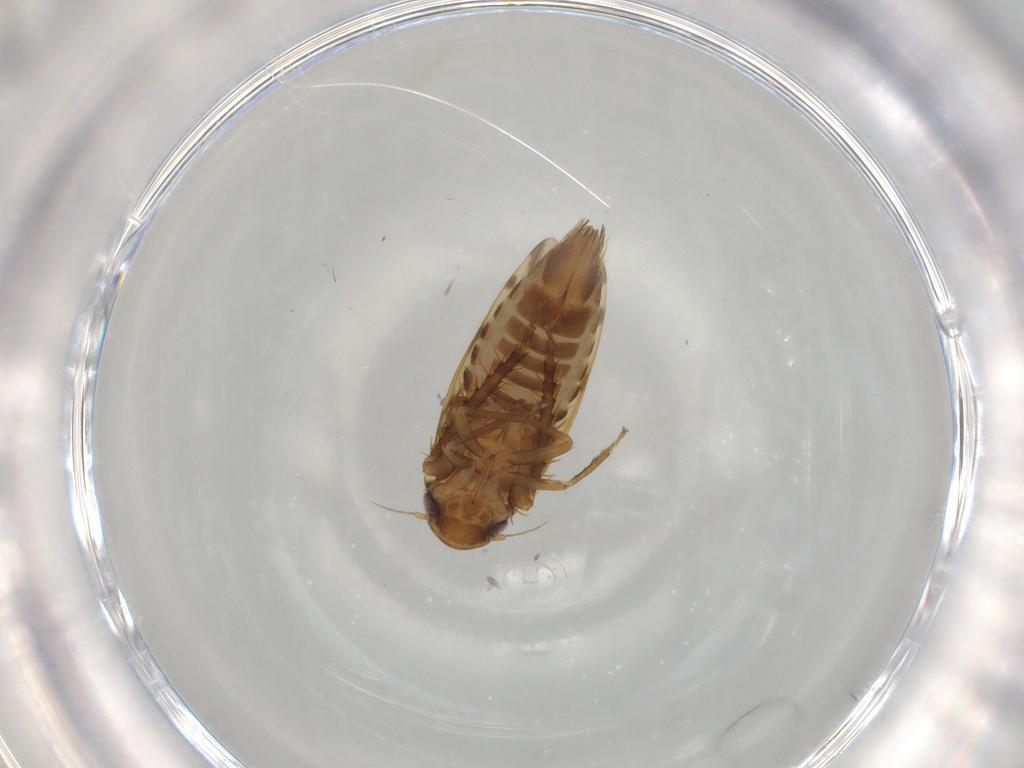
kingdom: Animalia
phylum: Arthropoda
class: Insecta
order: Hemiptera
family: Cicadellidae
